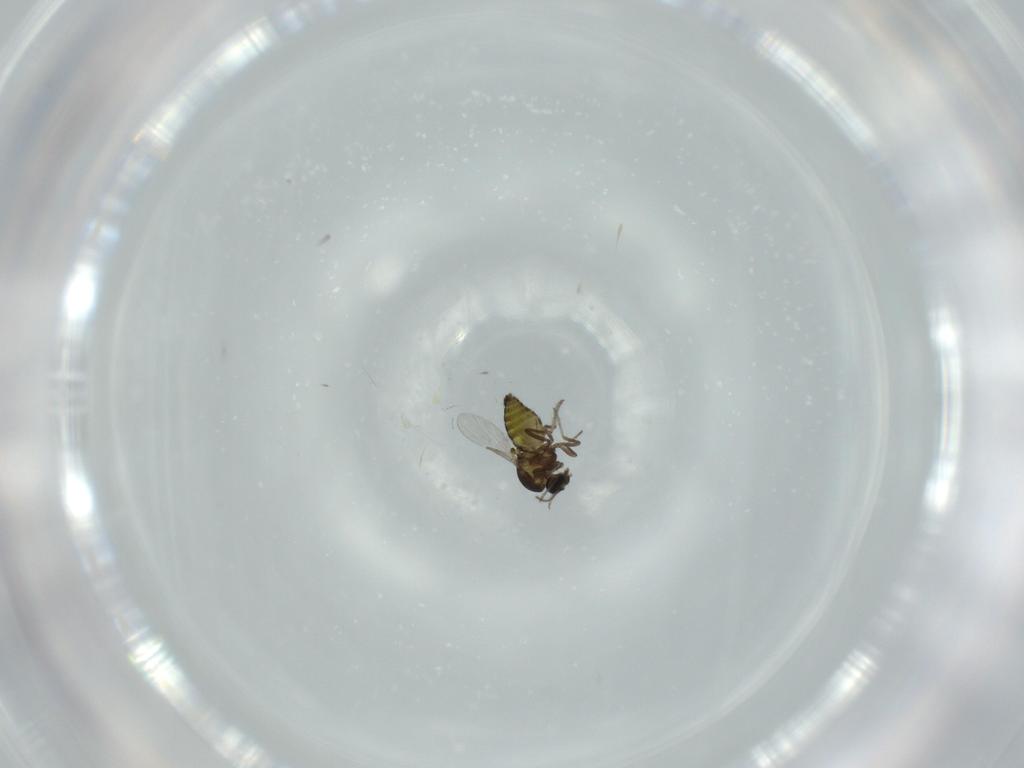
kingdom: Animalia
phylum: Arthropoda
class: Insecta
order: Diptera
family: Ceratopogonidae
